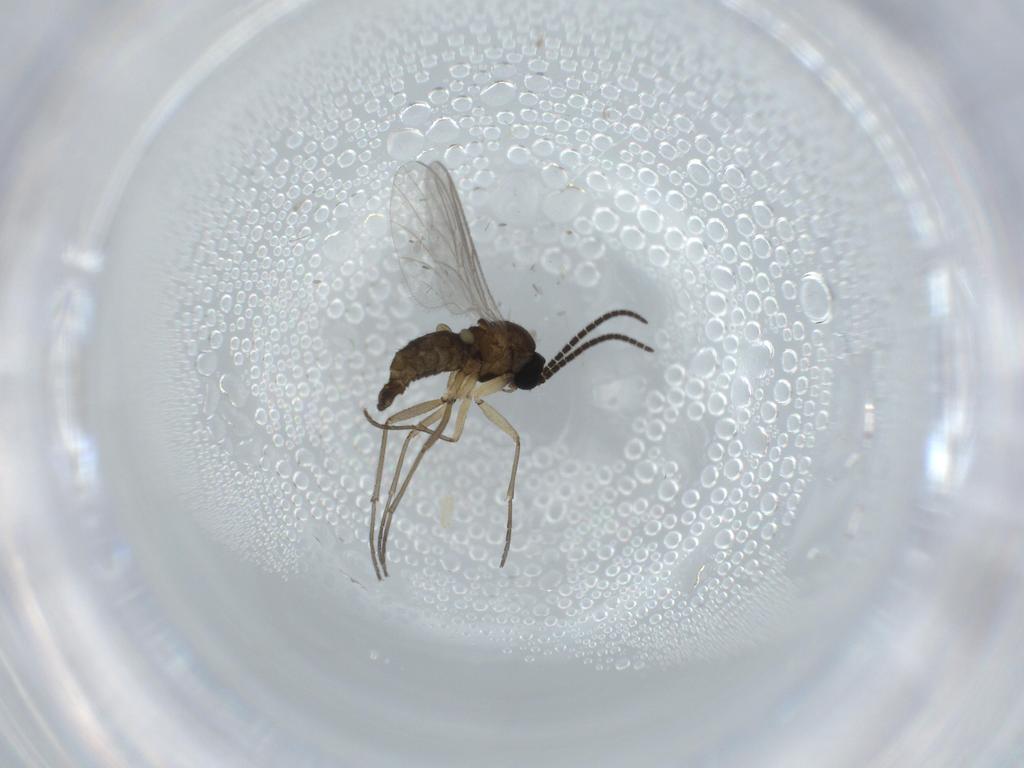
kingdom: Animalia
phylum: Arthropoda
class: Insecta
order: Diptera
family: Sciaridae
